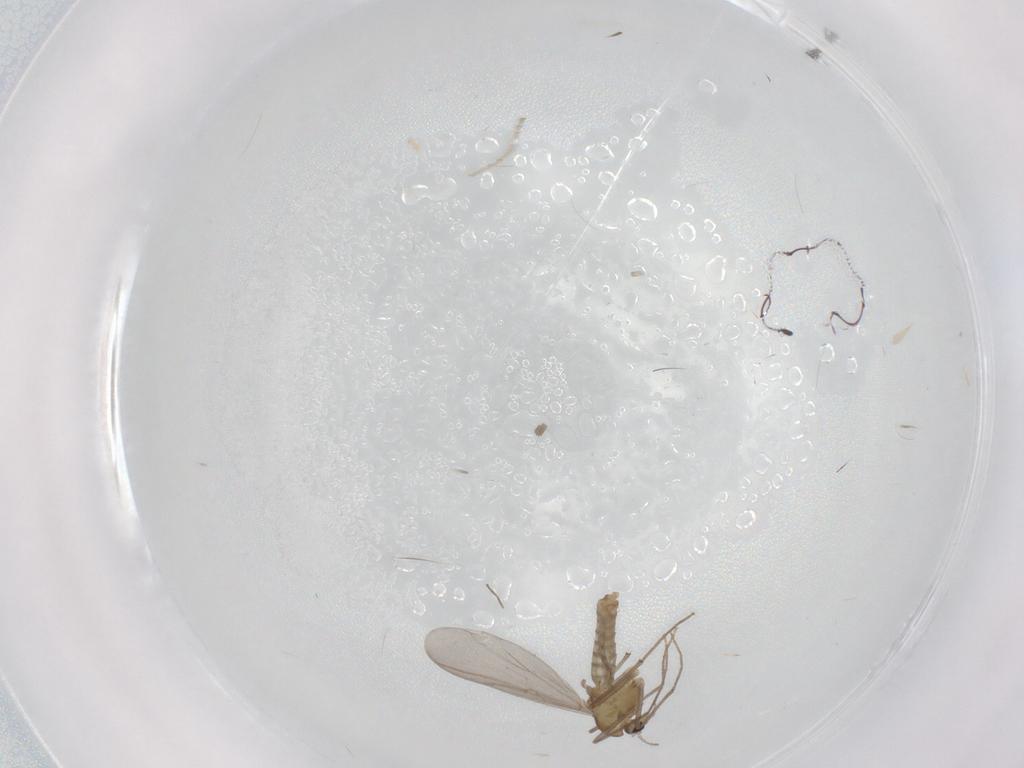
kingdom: Animalia
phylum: Arthropoda
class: Insecta
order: Diptera
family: Chironomidae
